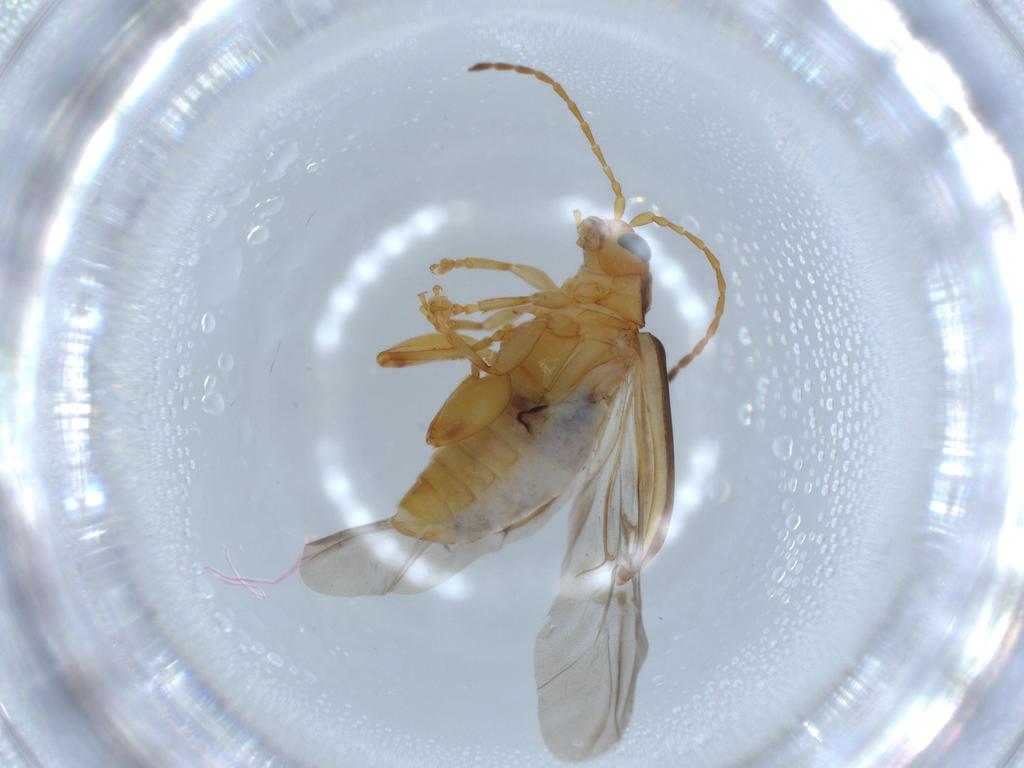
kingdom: Animalia
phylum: Arthropoda
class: Insecta
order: Coleoptera
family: Chrysomelidae
